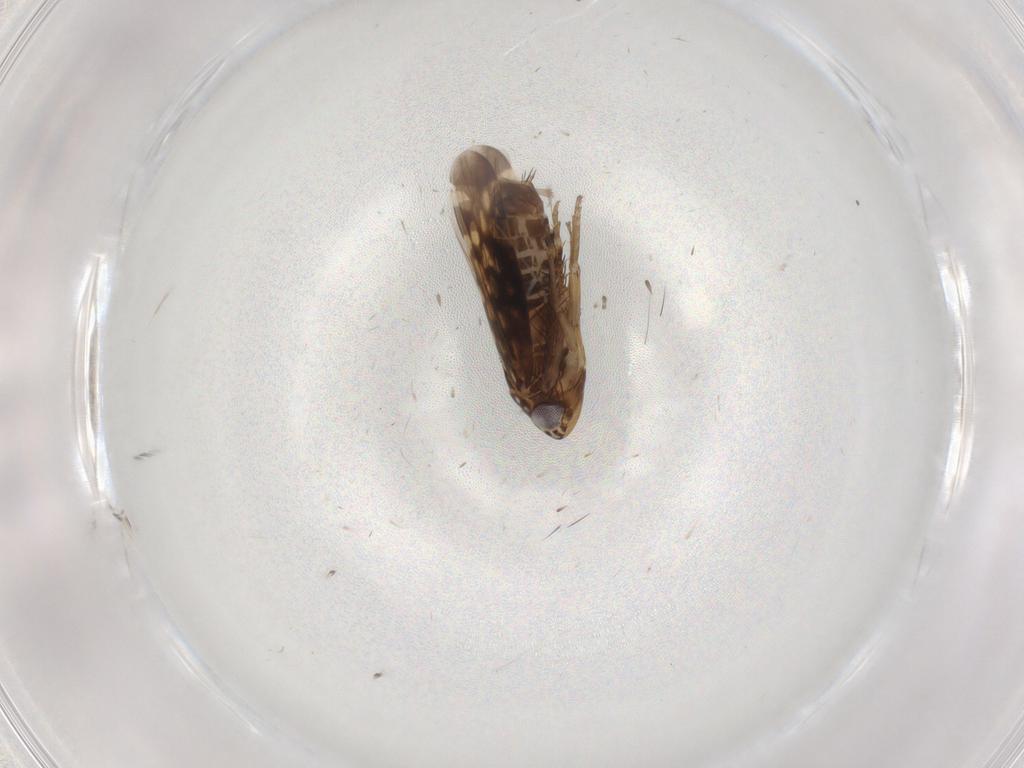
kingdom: Animalia
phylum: Arthropoda
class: Insecta
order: Hemiptera
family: Cicadellidae
